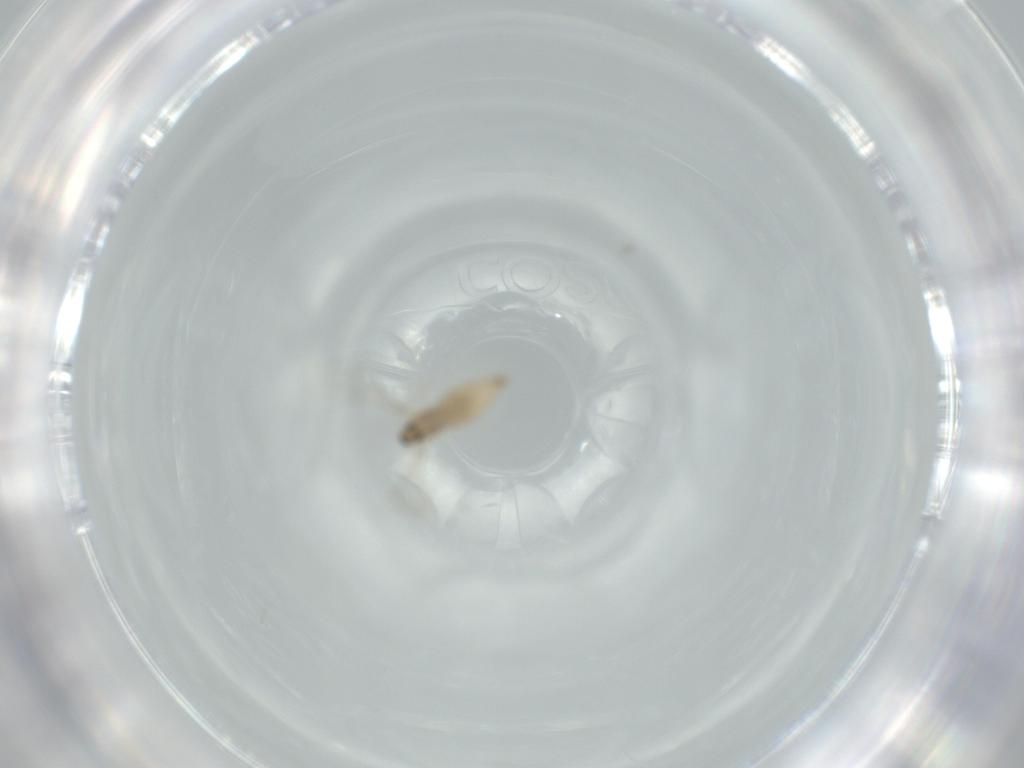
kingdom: Animalia
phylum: Arthropoda
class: Insecta
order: Diptera
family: Cecidomyiidae
